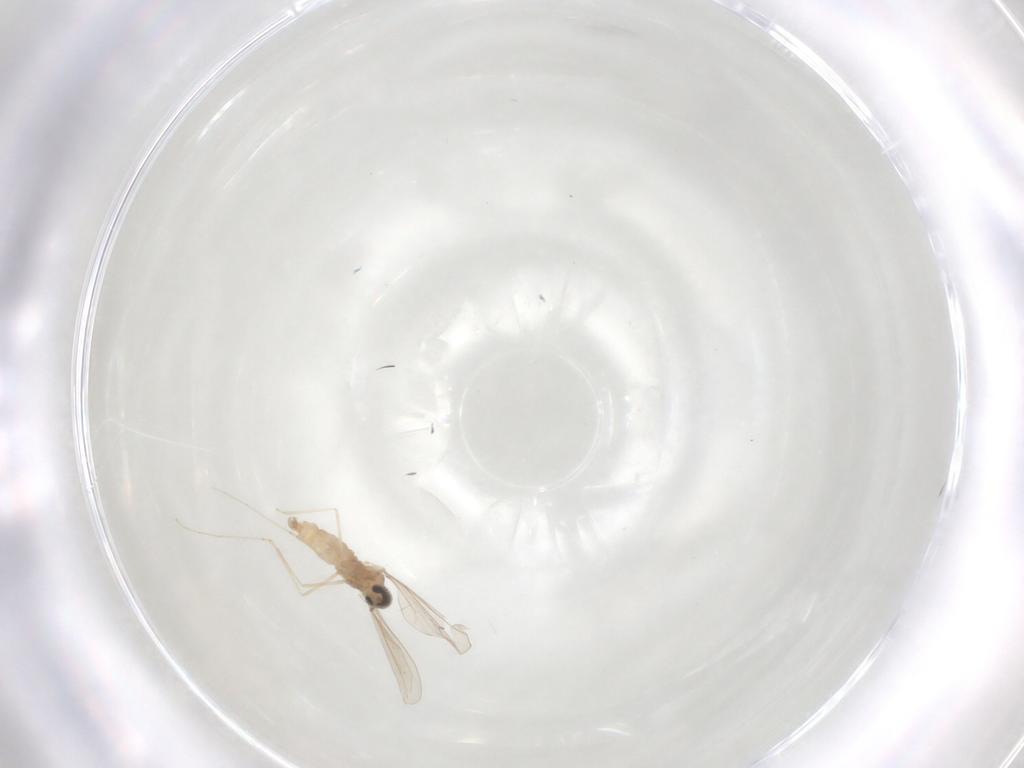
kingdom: Animalia
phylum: Arthropoda
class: Insecta
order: Diptera
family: Cecidomyiidae
